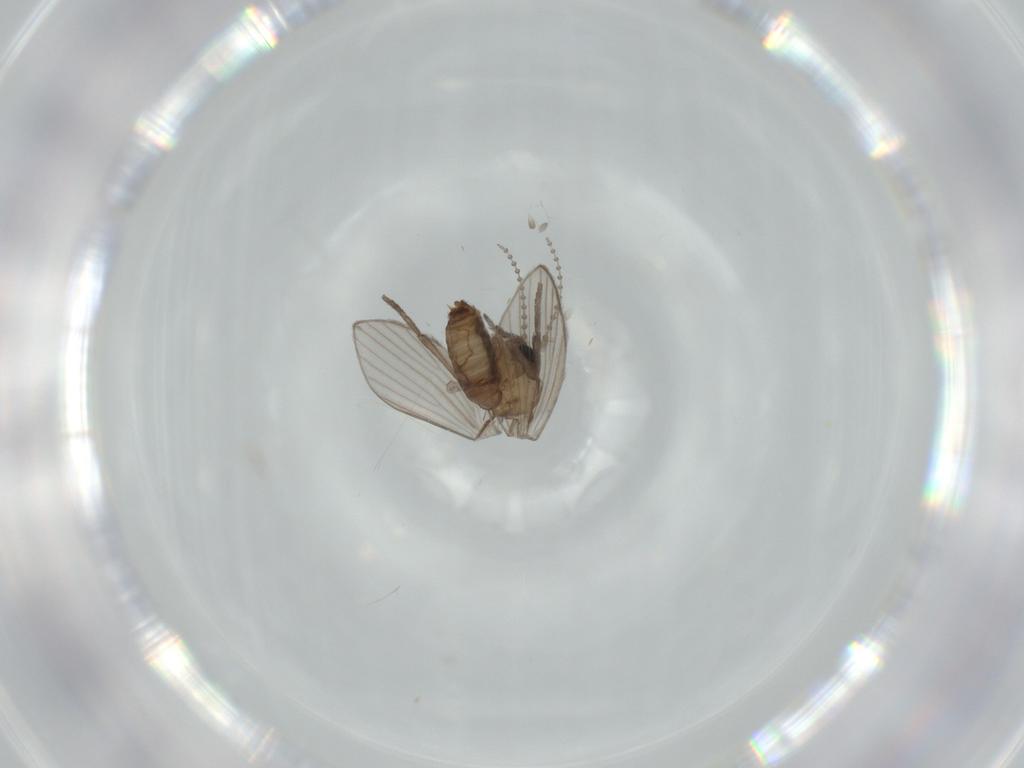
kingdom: Animalia
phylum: Arthropoda
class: Insecta
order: Diptera
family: Psychodidae
